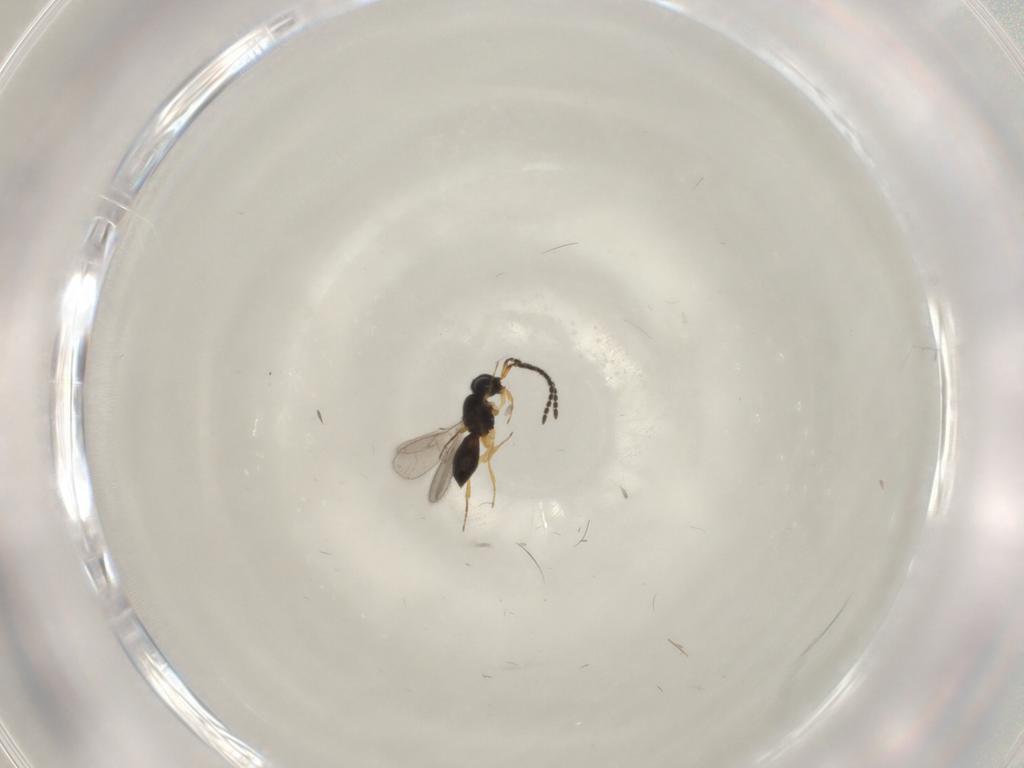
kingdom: Animalia
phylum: Arthropoda
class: Insecta
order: Hymenoptera
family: Scelionidae
